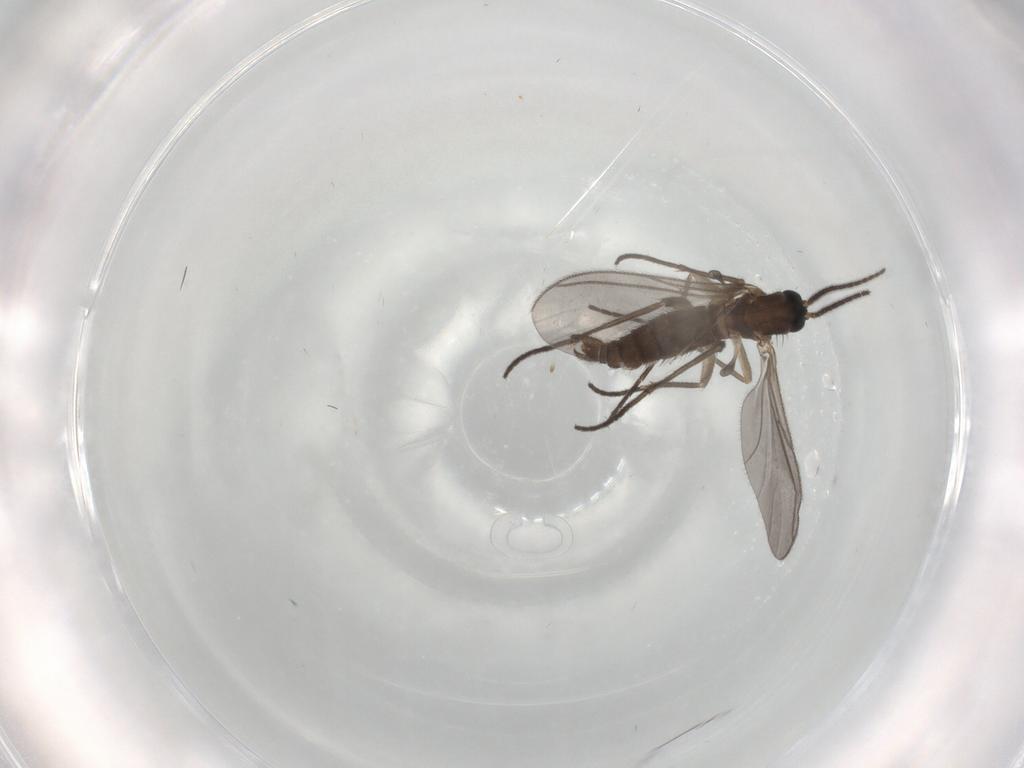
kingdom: Animalia
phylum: Arthropoda
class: Insecta
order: Diptera
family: Sciaridae
